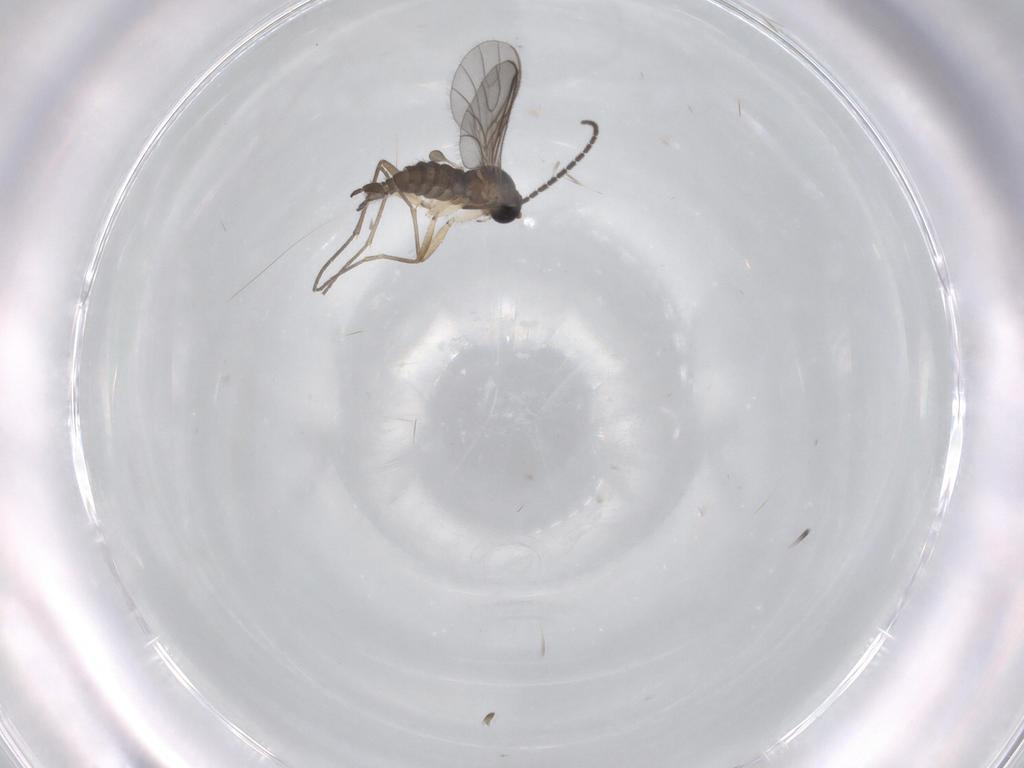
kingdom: Animalia
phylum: Arthropoda
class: Insecta
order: Diptera
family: Sciaridae
